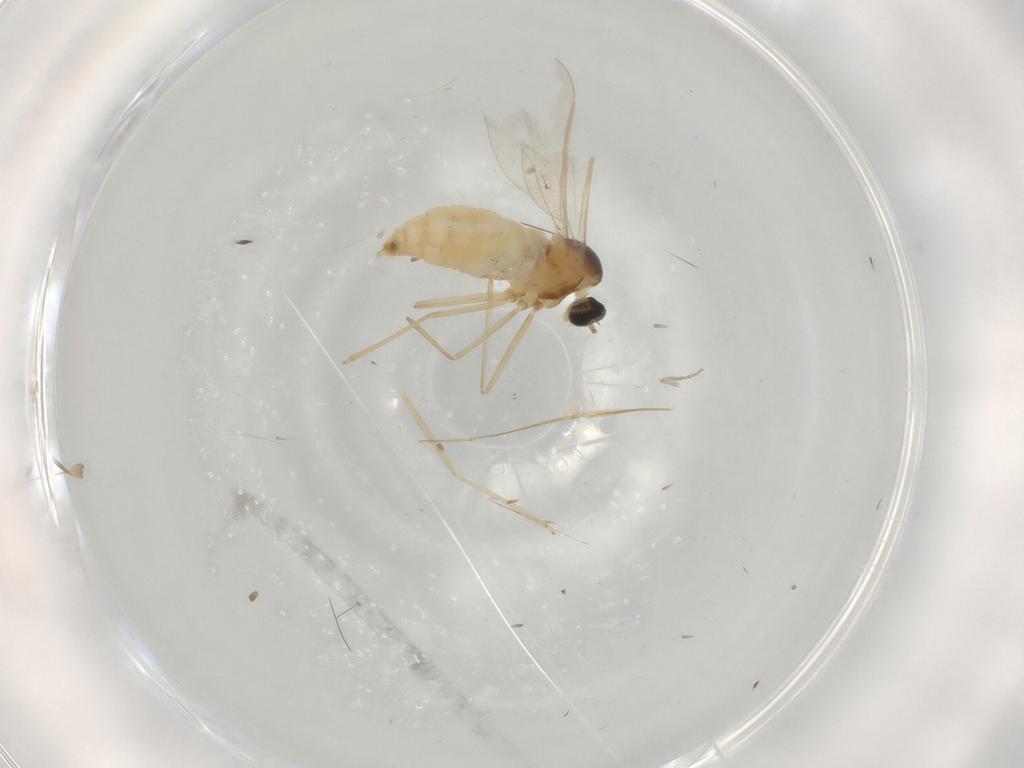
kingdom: Animalia
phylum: Arthropoda
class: Insecta
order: Diptera
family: Cecidomyiidae
